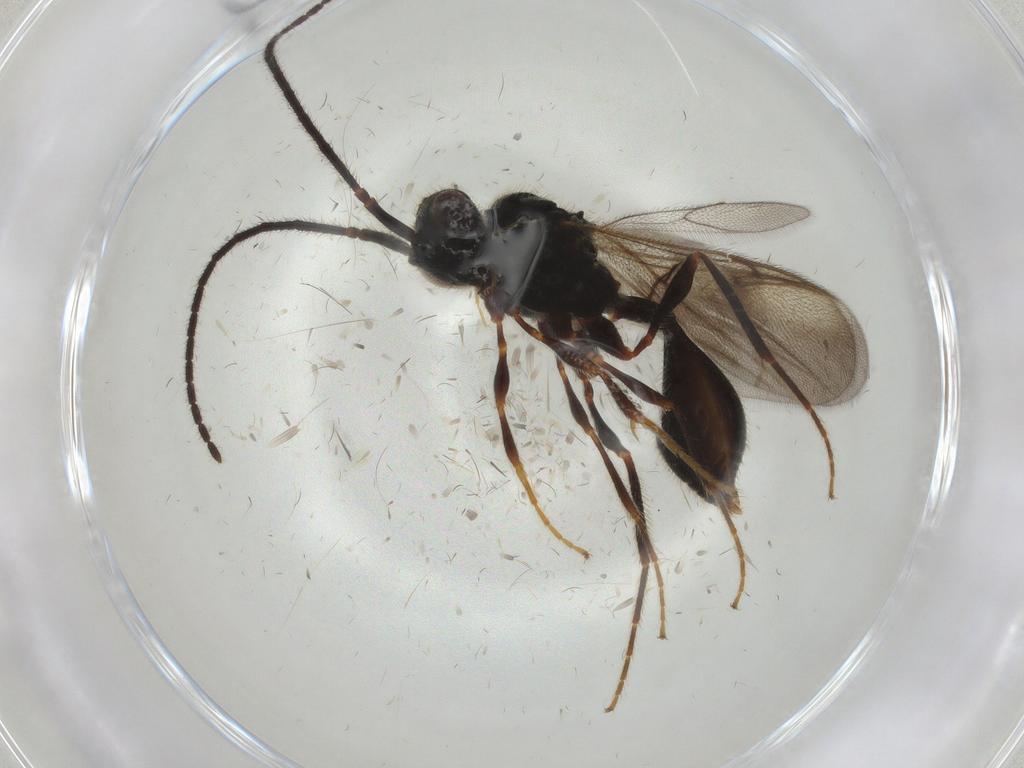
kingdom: Animalia
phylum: Arthropoda
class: Insecta
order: Hymenoptera
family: Diapriidae
